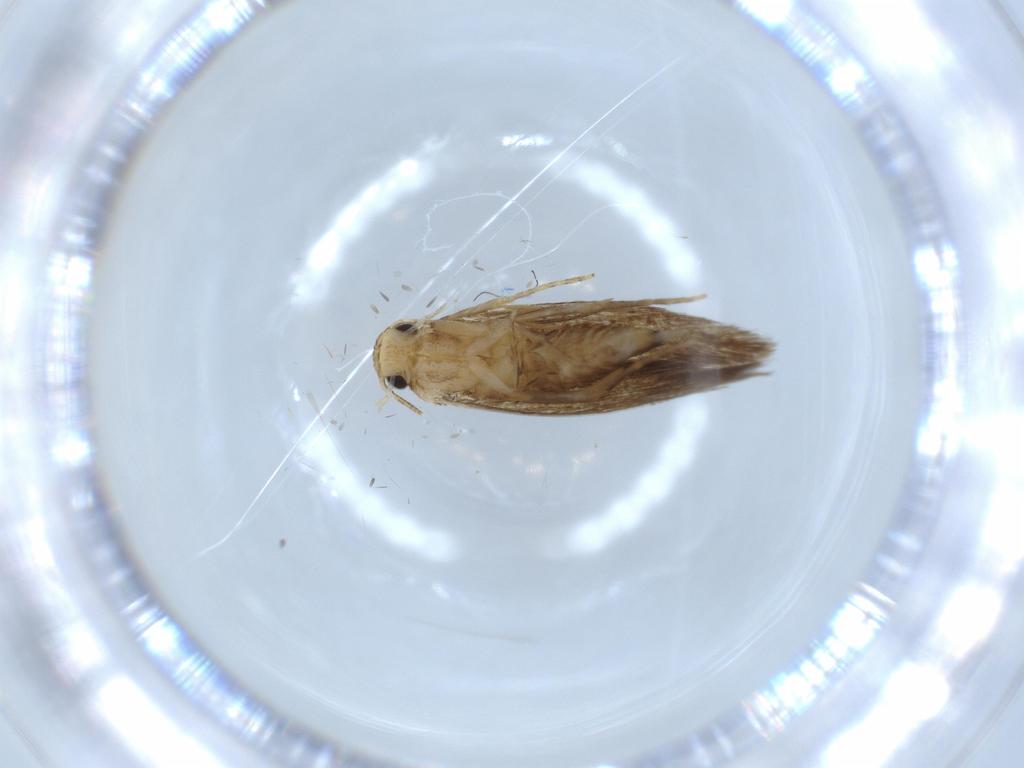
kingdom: Animalia
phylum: Arthropoda
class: Insecta
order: Lepidoptera
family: Tineidae
